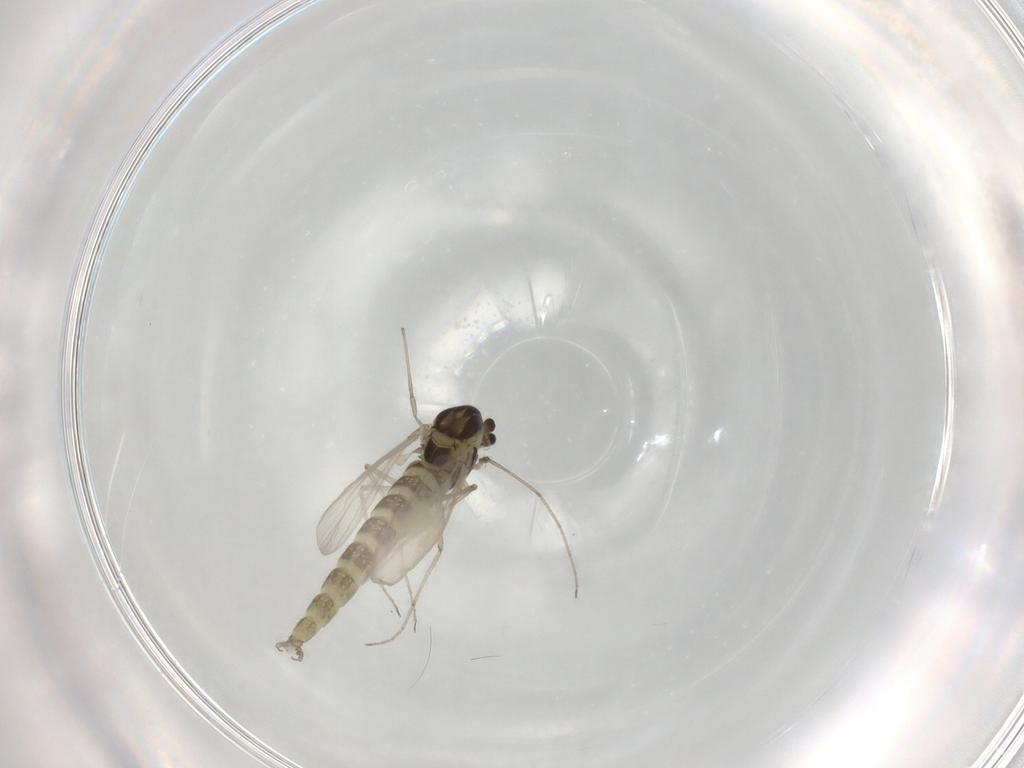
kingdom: Animalia
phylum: Arthropoda
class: Insecta
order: Diptera
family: Chironomidae
